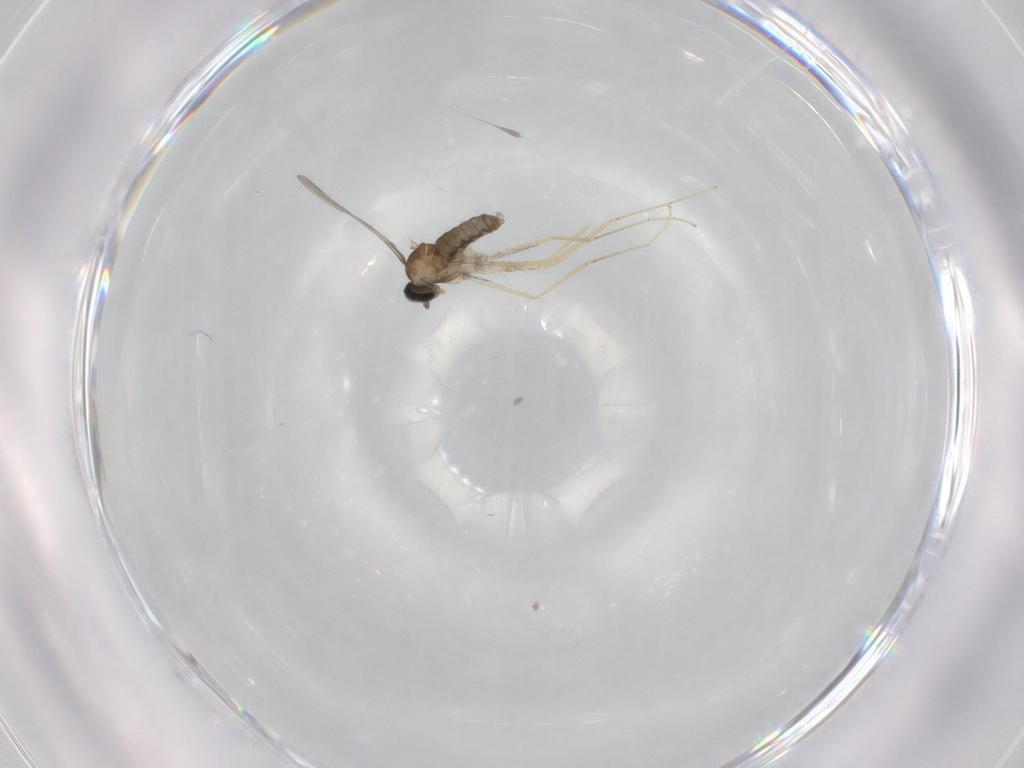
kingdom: Animalia
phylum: Arthropoda
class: Insecta
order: Diptera
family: Cecidomyiidae
